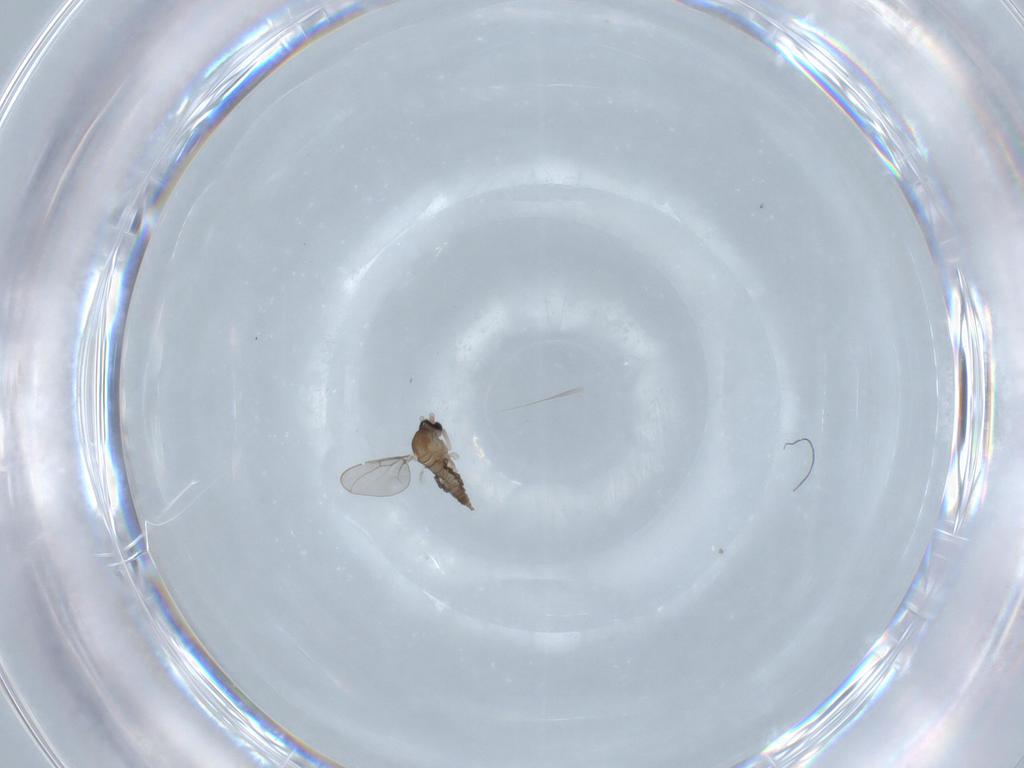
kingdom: Animalia
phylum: Arthropoda
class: Insecta
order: Diptera
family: Cecidomyiidae
